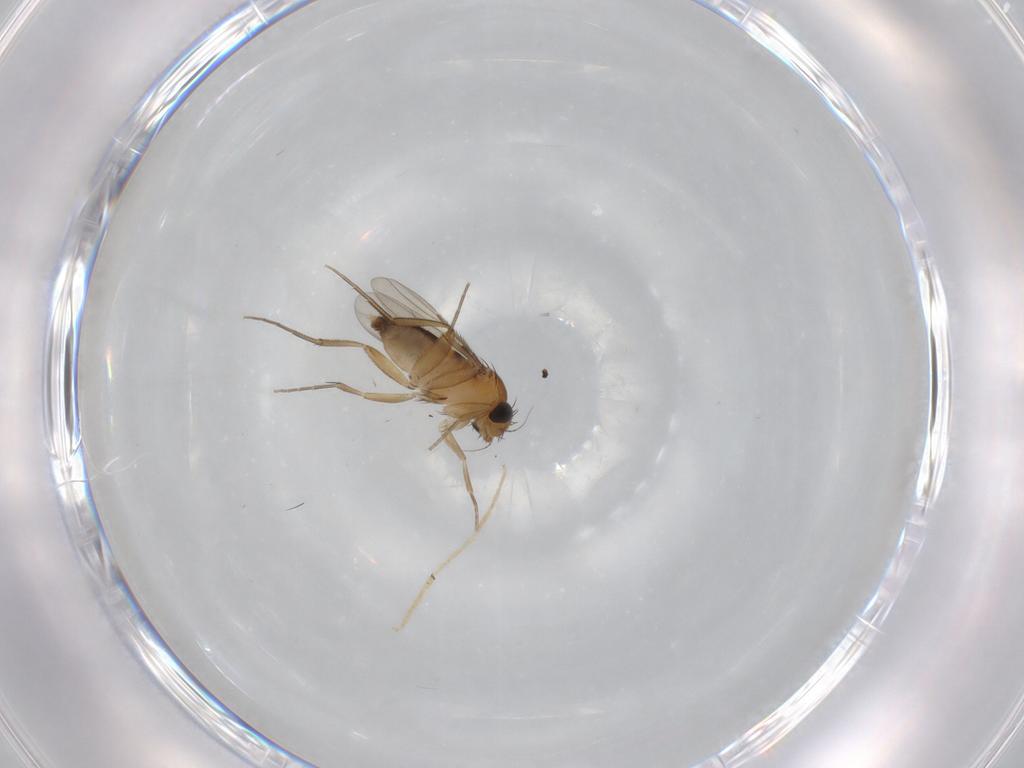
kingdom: Animalia
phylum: Arthropoda
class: Insecta
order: Diptera
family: Phoridae
